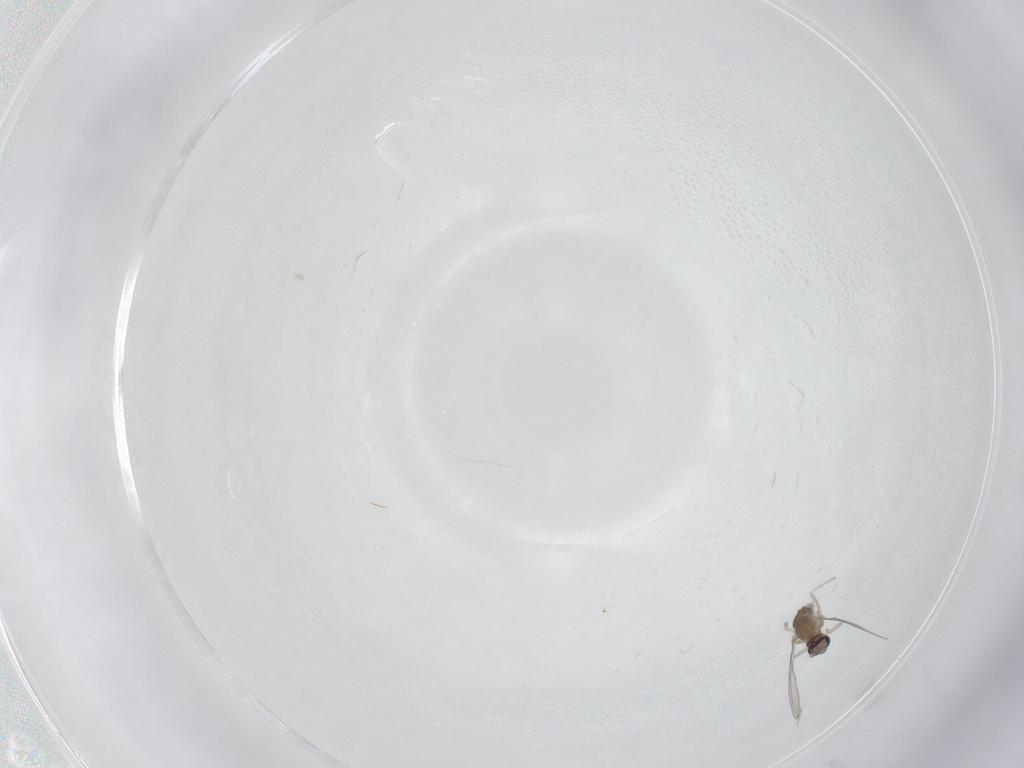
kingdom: Animalia
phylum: Arthropoda
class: Insecta
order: Diptera
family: Cecidomyiidae
